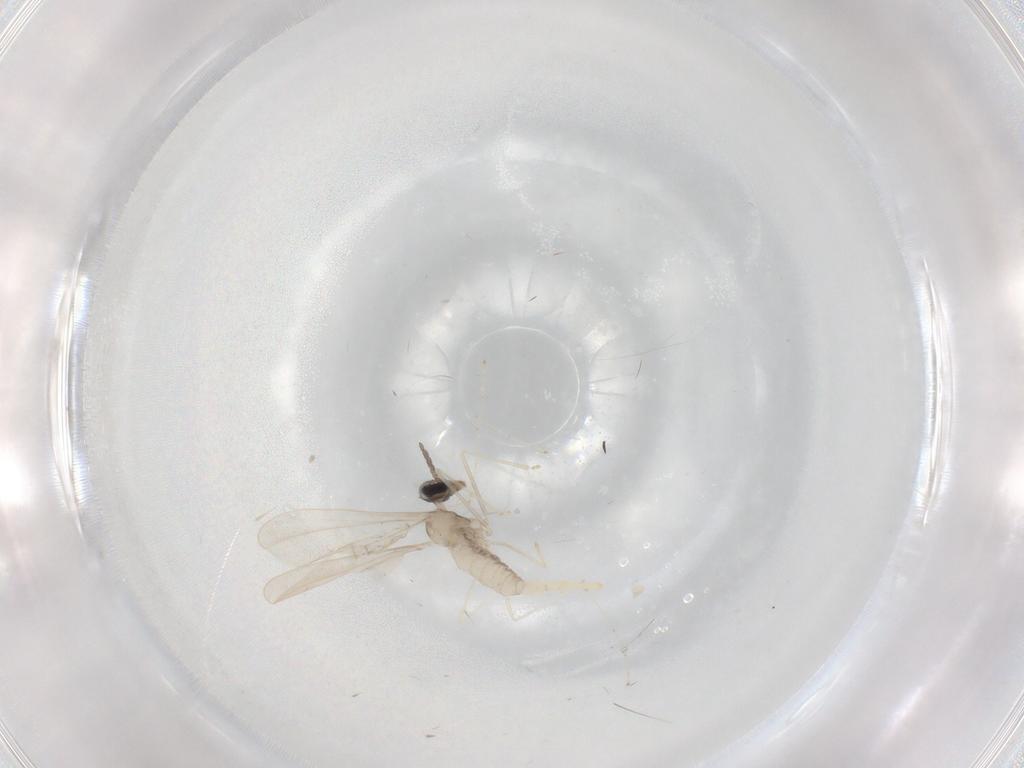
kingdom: Animalia
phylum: Arthropoda
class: Insecta
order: Diptera
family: Cecidomyiidae
